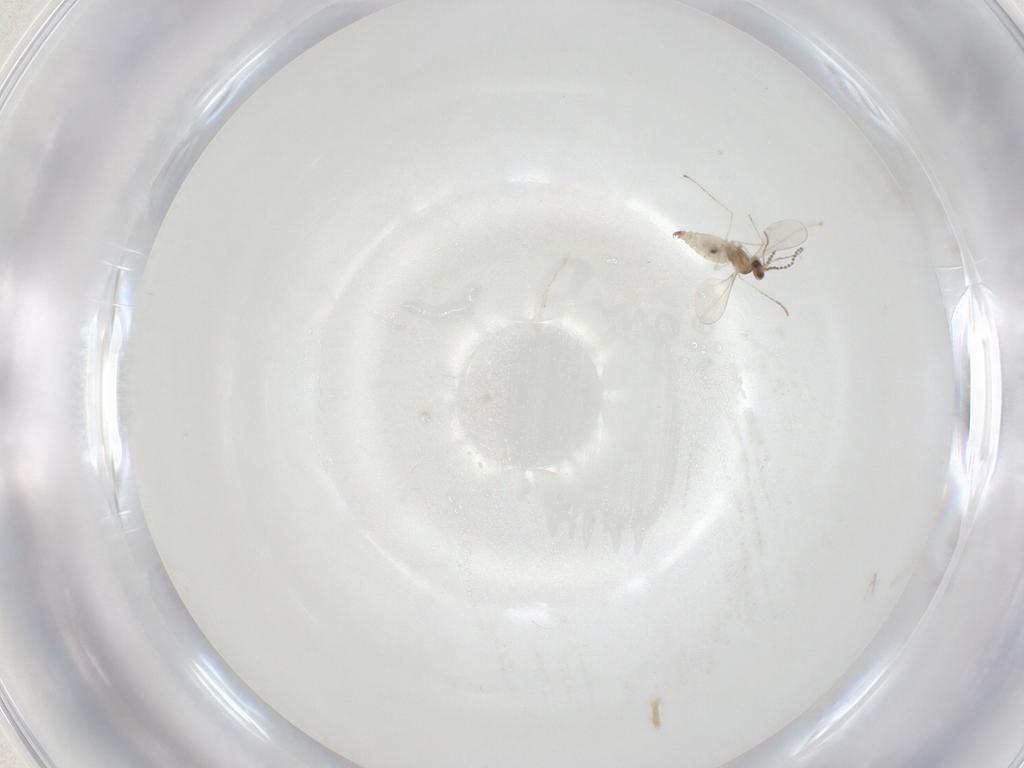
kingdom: Animalia
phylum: Arthropoda
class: Insecta
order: Diptera
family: Cecidomyiidae
